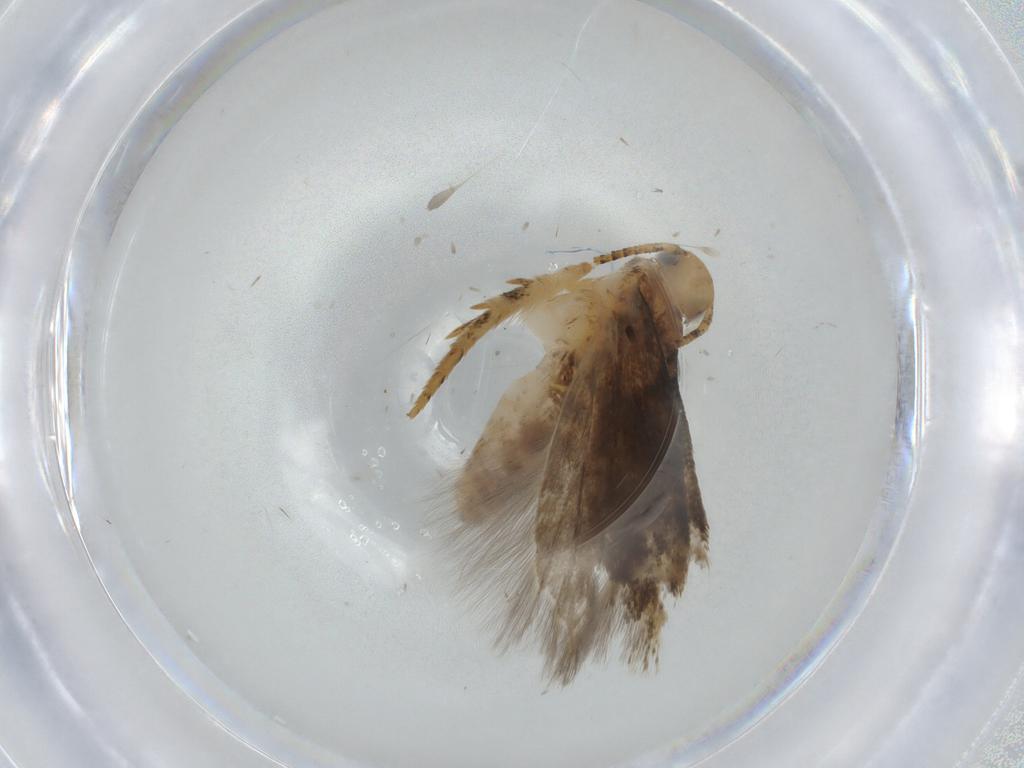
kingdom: Animalia
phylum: Arthropoda
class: Insecta
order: Lepidoptera
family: Gelechiidae
